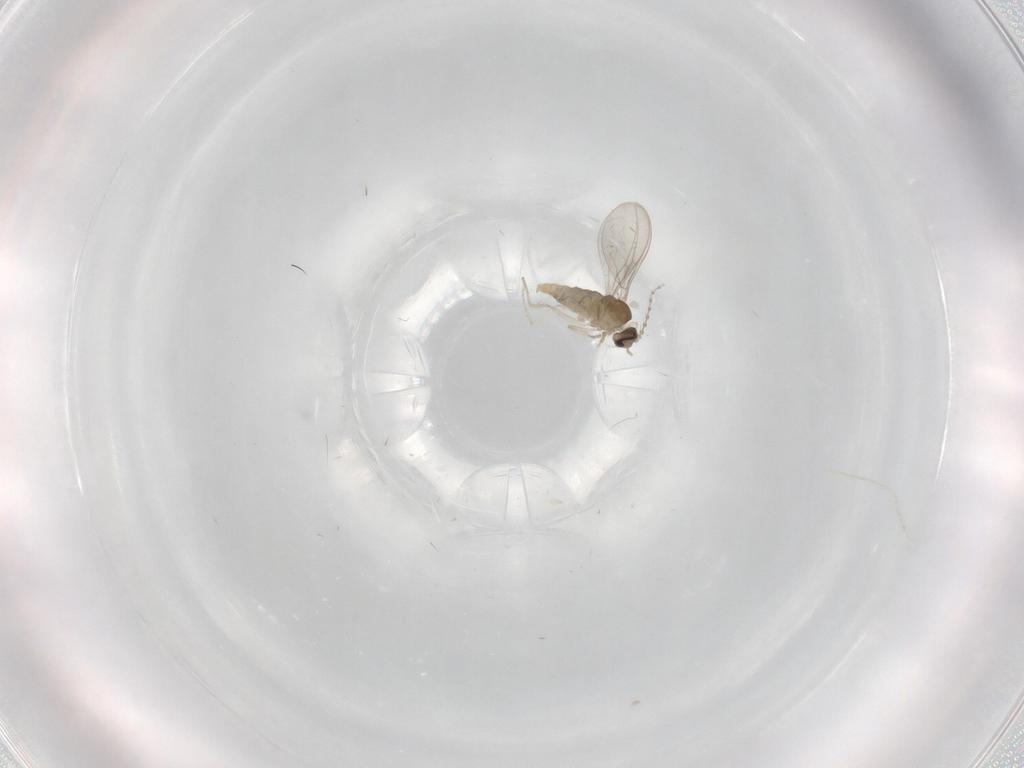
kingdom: Animalia
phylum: Arthropoda
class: Insecta
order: Diptera
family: Cecidomyiidae
